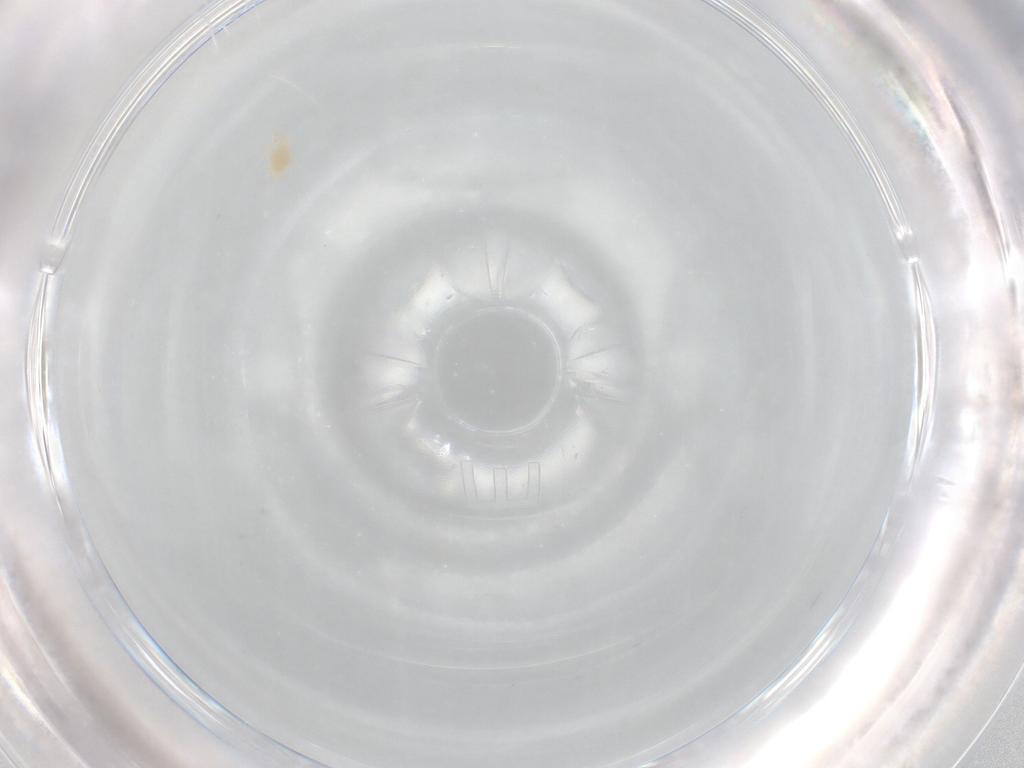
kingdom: Animalia
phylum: Arthropoda
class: Arachnida
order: Trombidiformes
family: Stigmaeidae
